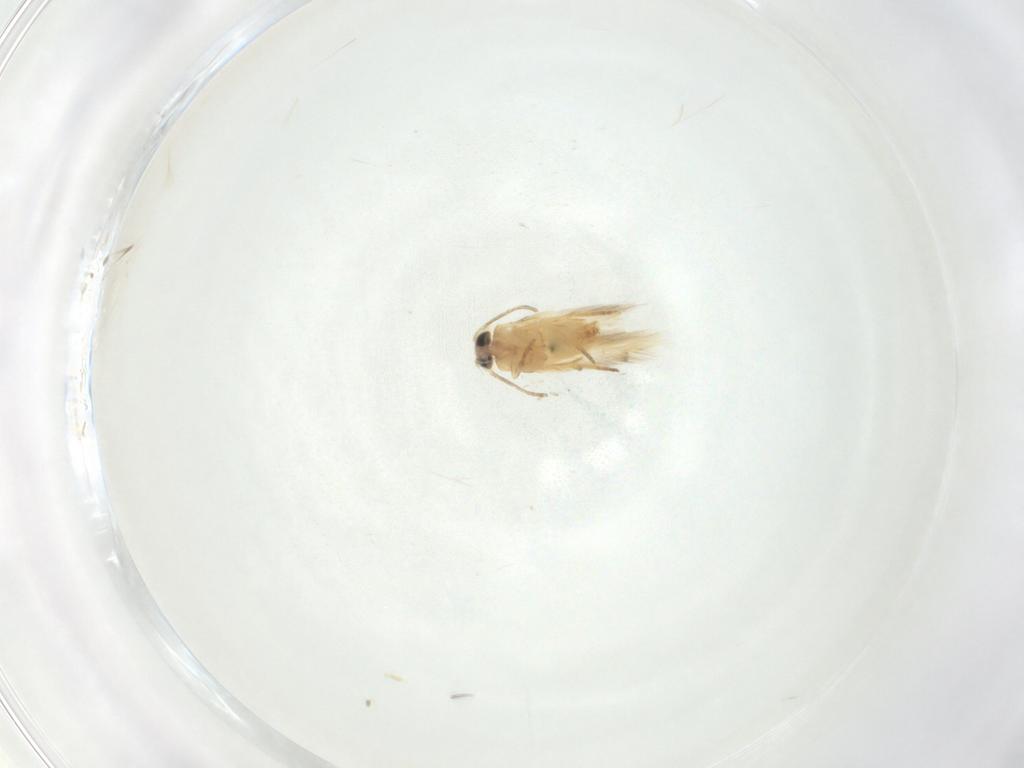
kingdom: Animalia
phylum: Arthropoda
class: Insecta
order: Lepidoptera
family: Crambidae
